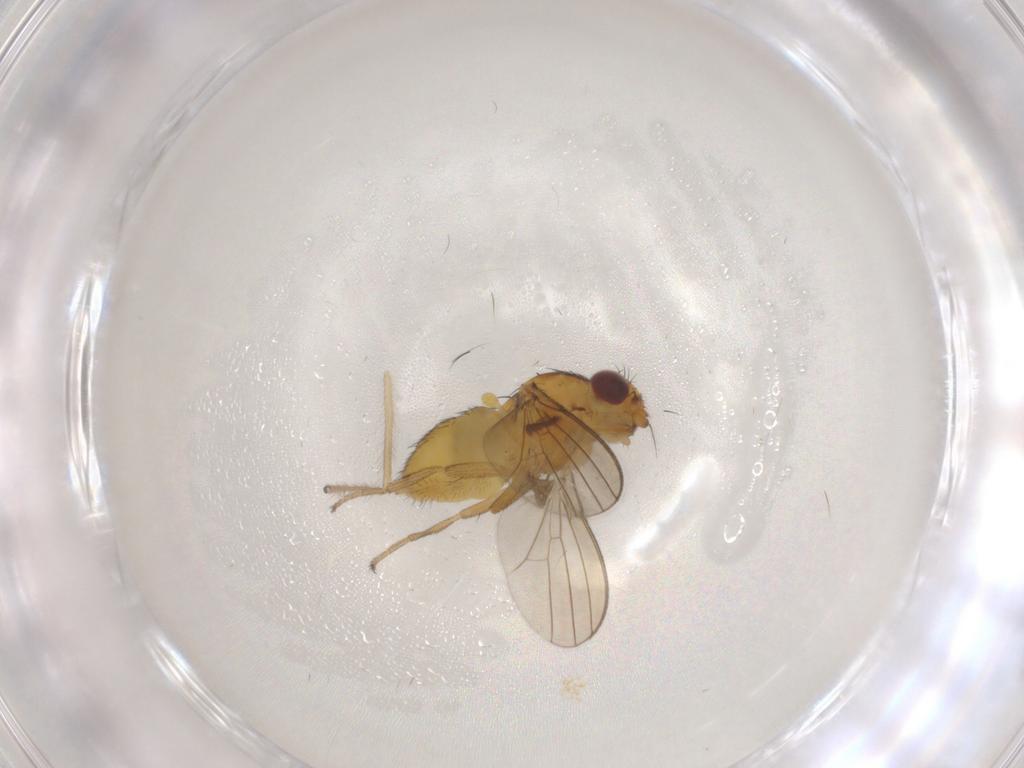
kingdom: Animalia
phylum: Arthropoda
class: Insecta
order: Diptera
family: Milichiidae
